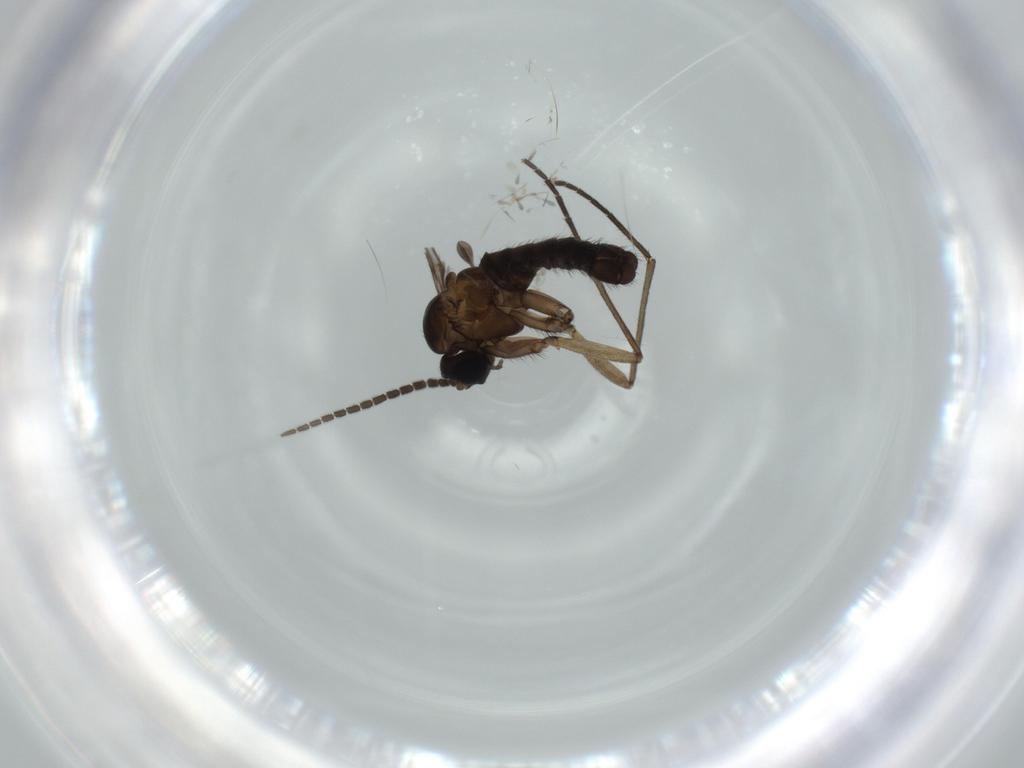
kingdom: Animalia
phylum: Arthropoda
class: Insecta
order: Diptera
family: Sciaridae
